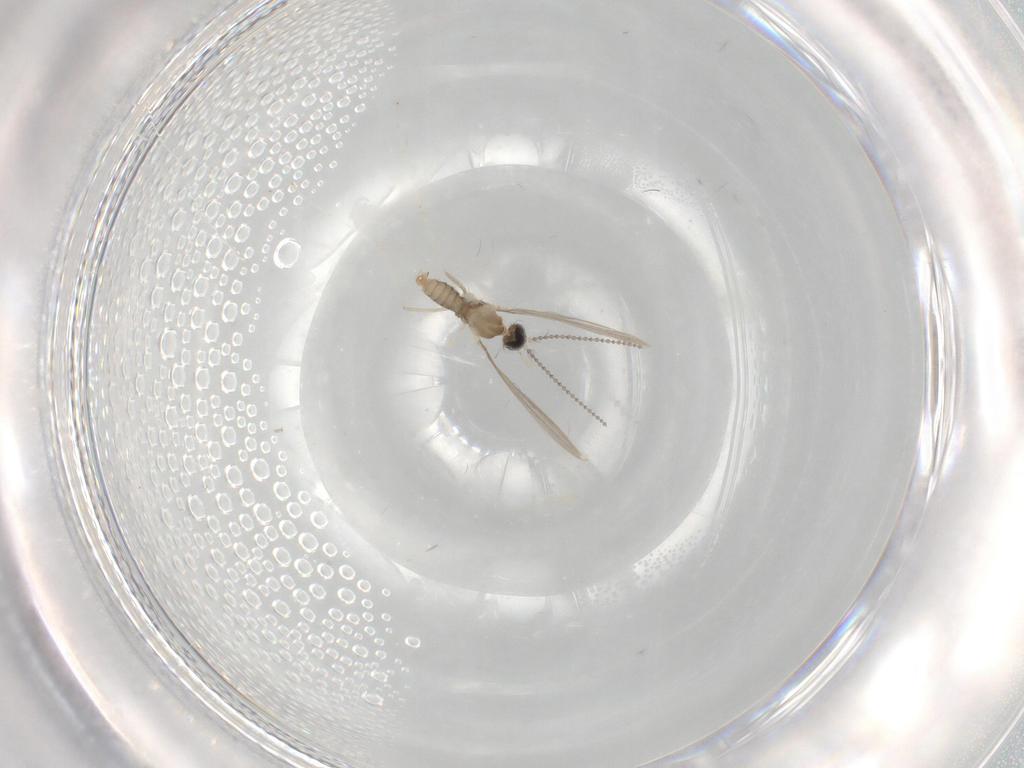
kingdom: Animalia
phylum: Arthropoda
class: Insecta
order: Diptera
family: Cecidomyiidae
